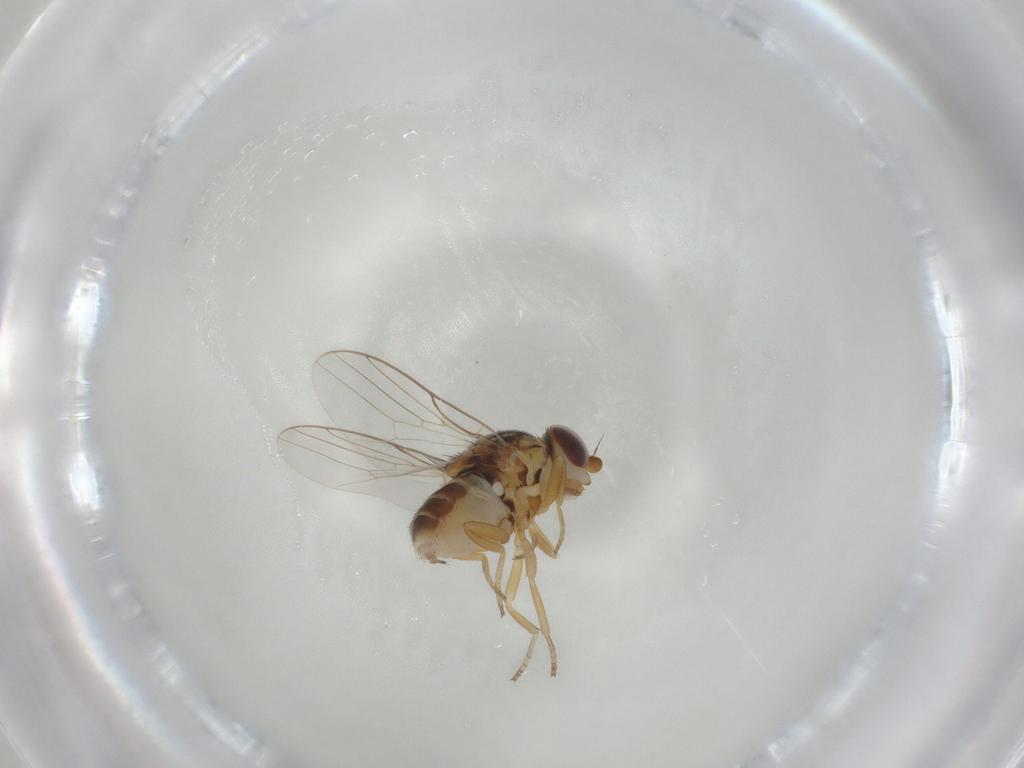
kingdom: Animalia
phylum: Arthropoda
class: Insecta
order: Diptera
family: Chloropidae
